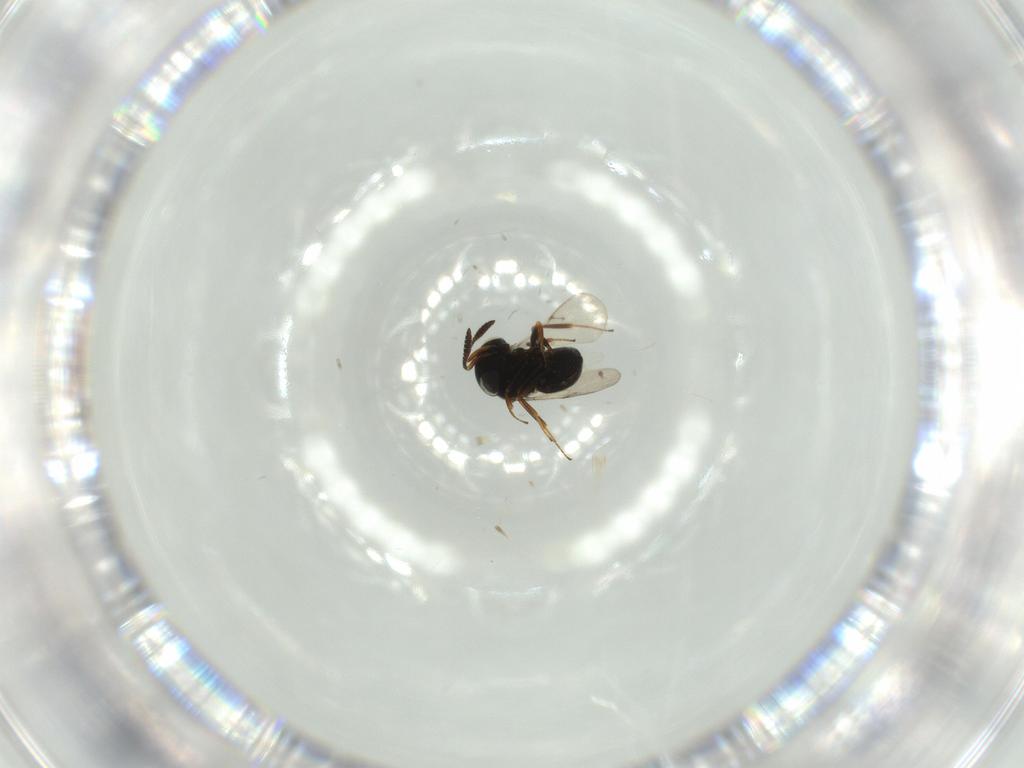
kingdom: Animalia
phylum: Arthropoda
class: Insecta
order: Hymenoptera
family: Scelionidae
